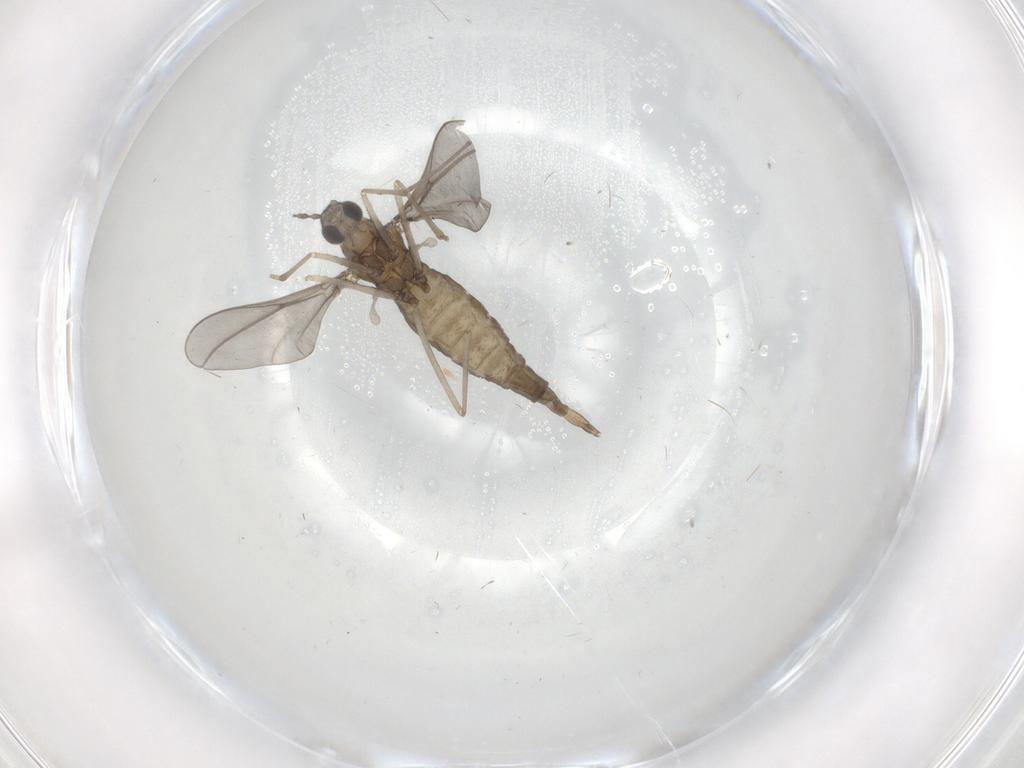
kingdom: Animalia
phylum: Arthropoda
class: Insecta
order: Diptera
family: Cecidomyiidae
